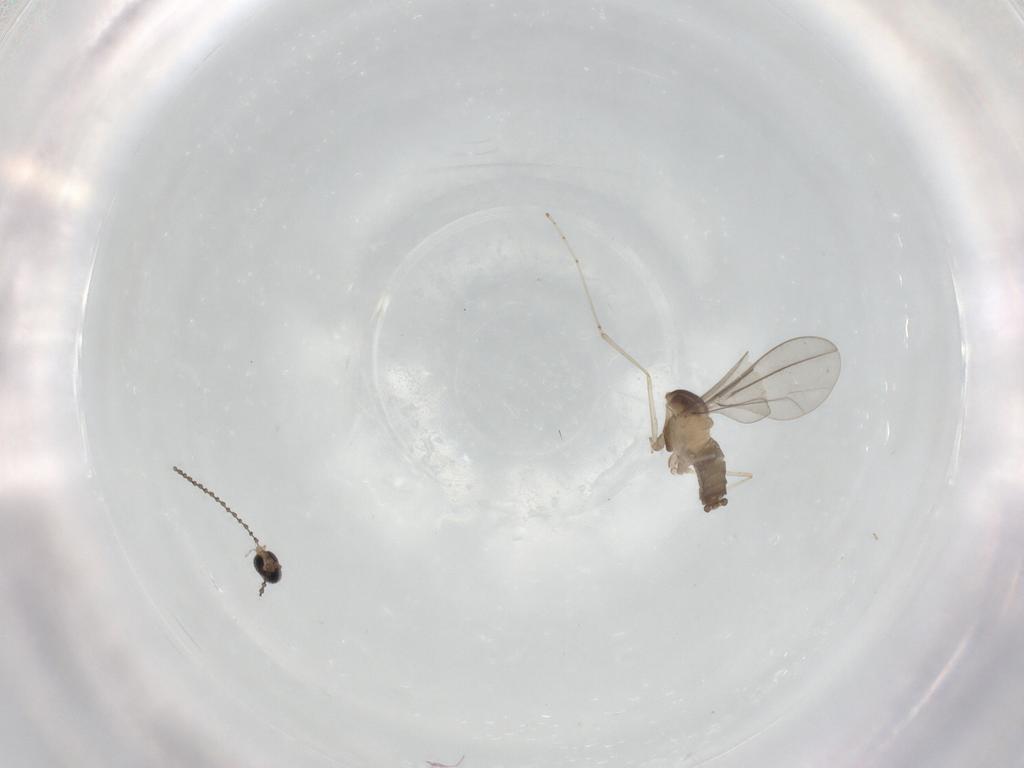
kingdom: Animalia
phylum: Arthropoda
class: Insecta
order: Diptera
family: Cecidomyiidae
